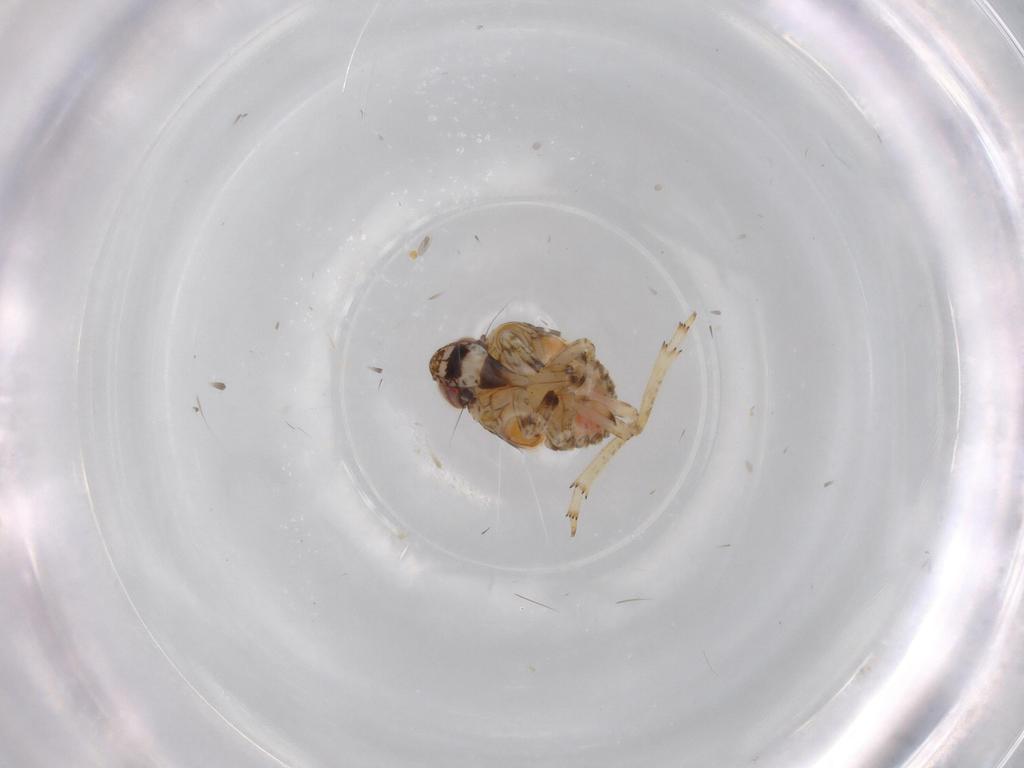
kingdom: Animalia
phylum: Arthropoda
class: Insecta
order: Hemiptera
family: Issidae
